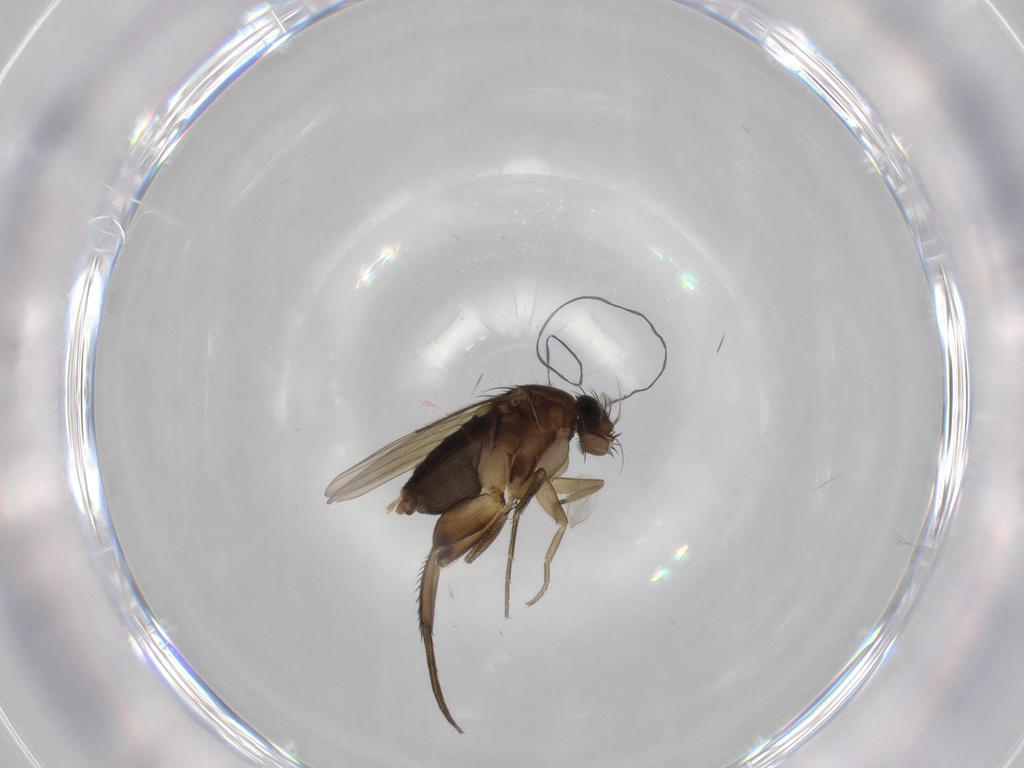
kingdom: Animalia
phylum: Arthropoda
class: Insecta
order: Diptera
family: Phoridae
